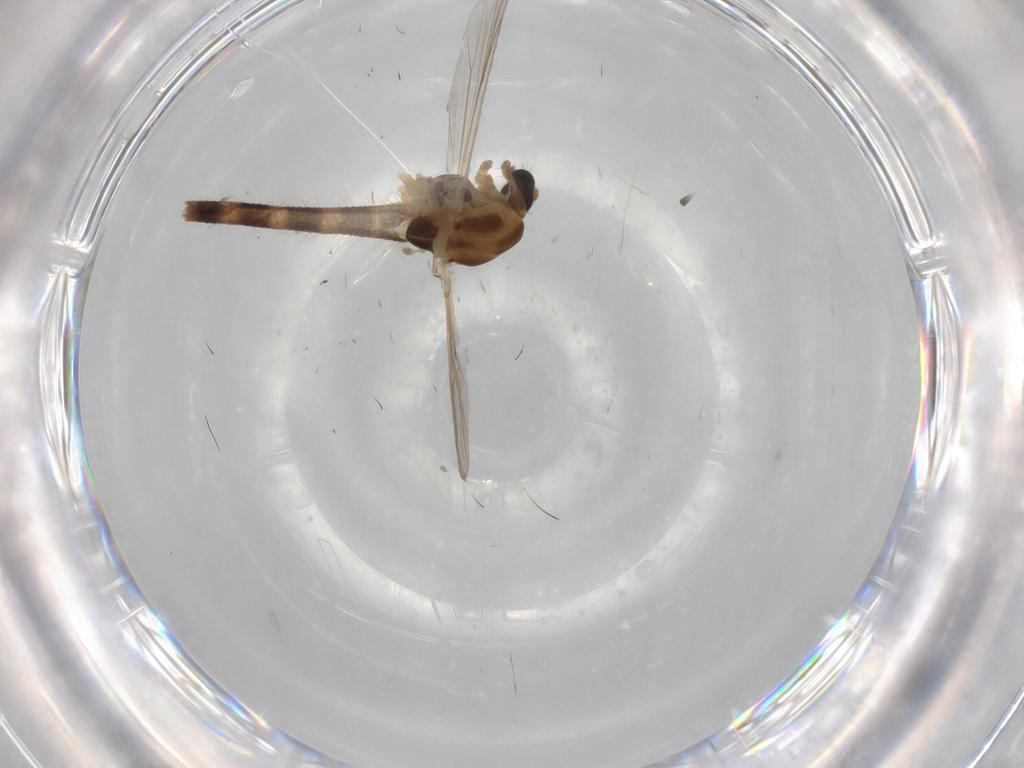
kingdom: Animalia
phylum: Arthropoda
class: Insecta
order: Diptera
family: Chironomidae
